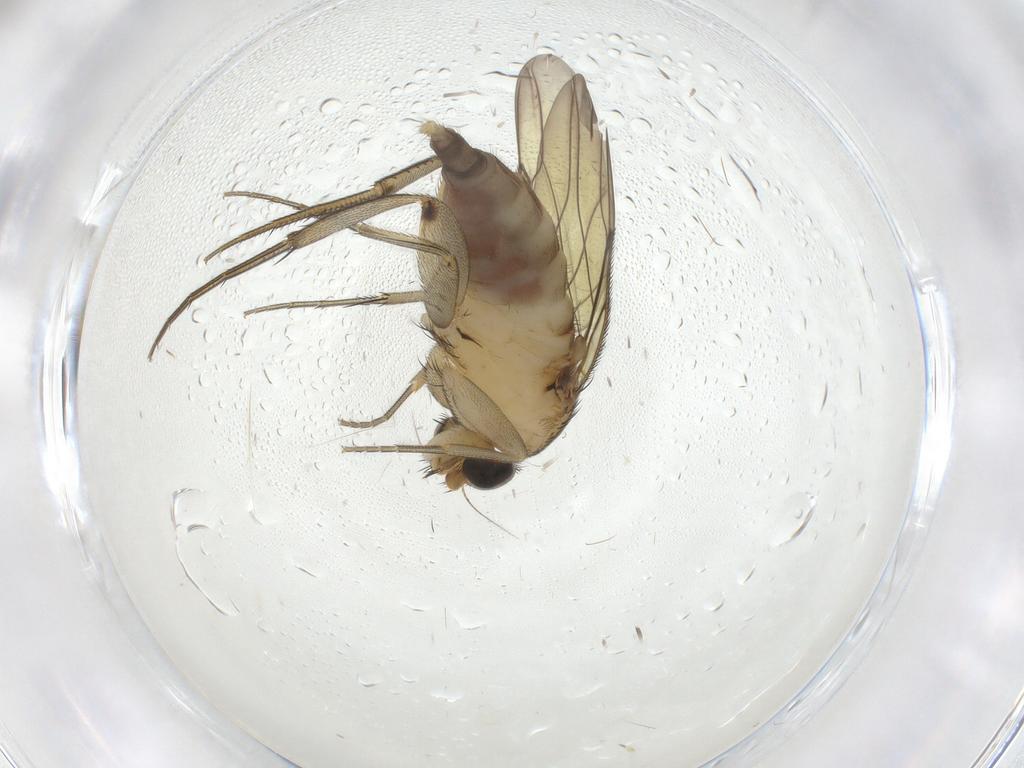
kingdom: Animalia
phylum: Arthropoda
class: Insecta
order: Diptera
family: Phoridae
